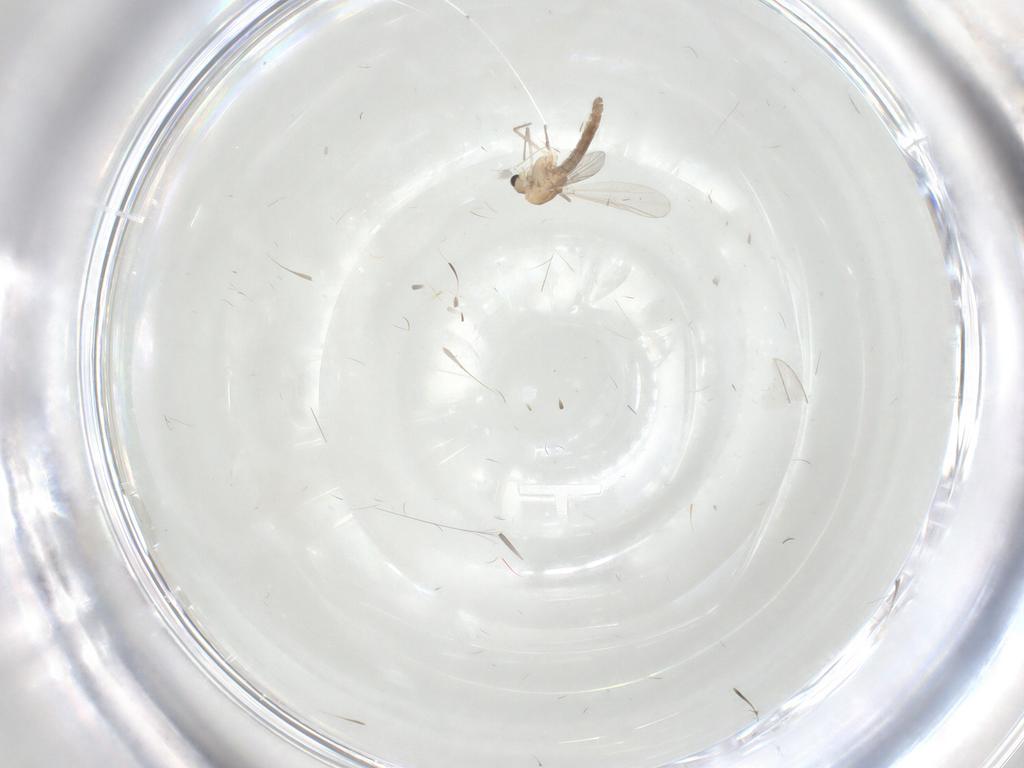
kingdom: Animalia
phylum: Arthropoda
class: Insecta
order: Diptera
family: Chironomidae
